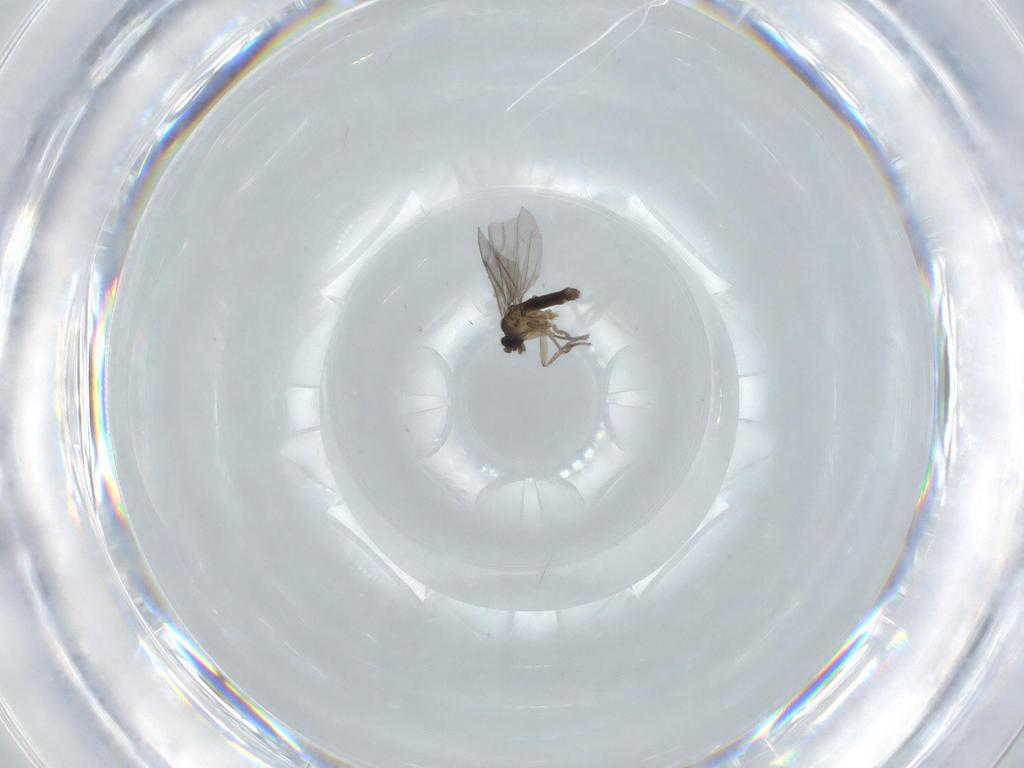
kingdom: Animalia
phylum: Arthropoda
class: Insecta
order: Diptera
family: Phoridae
